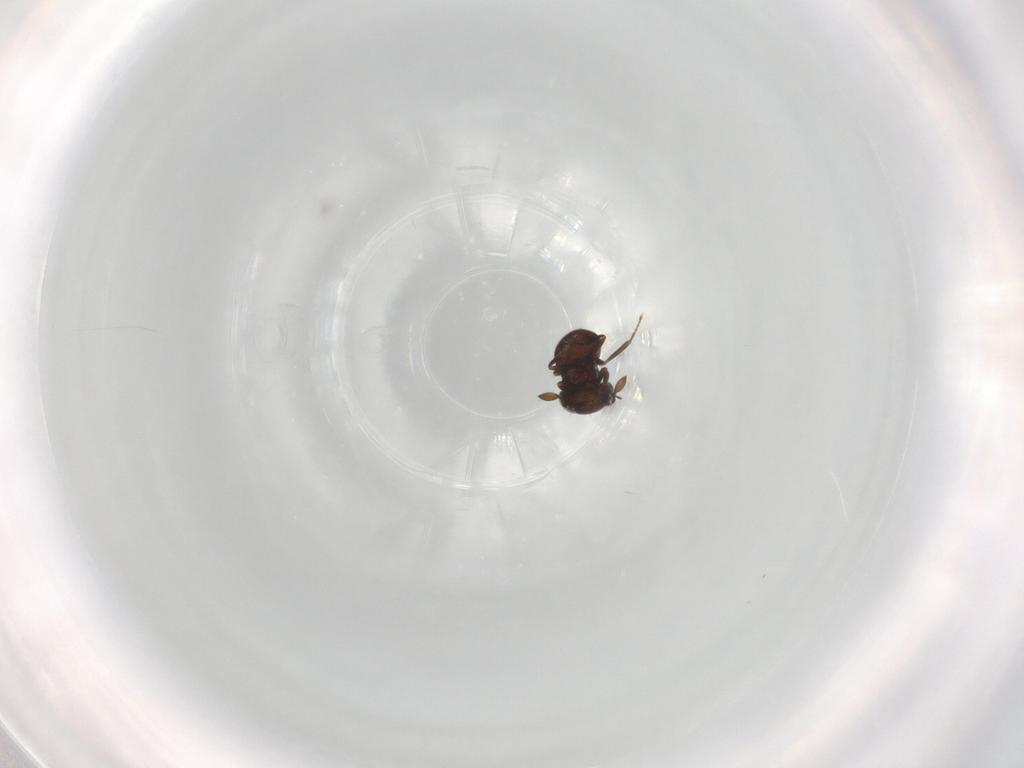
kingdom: Animalia
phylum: Arthropoda
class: Insecta
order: Hymenoptera
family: Scelionidae
